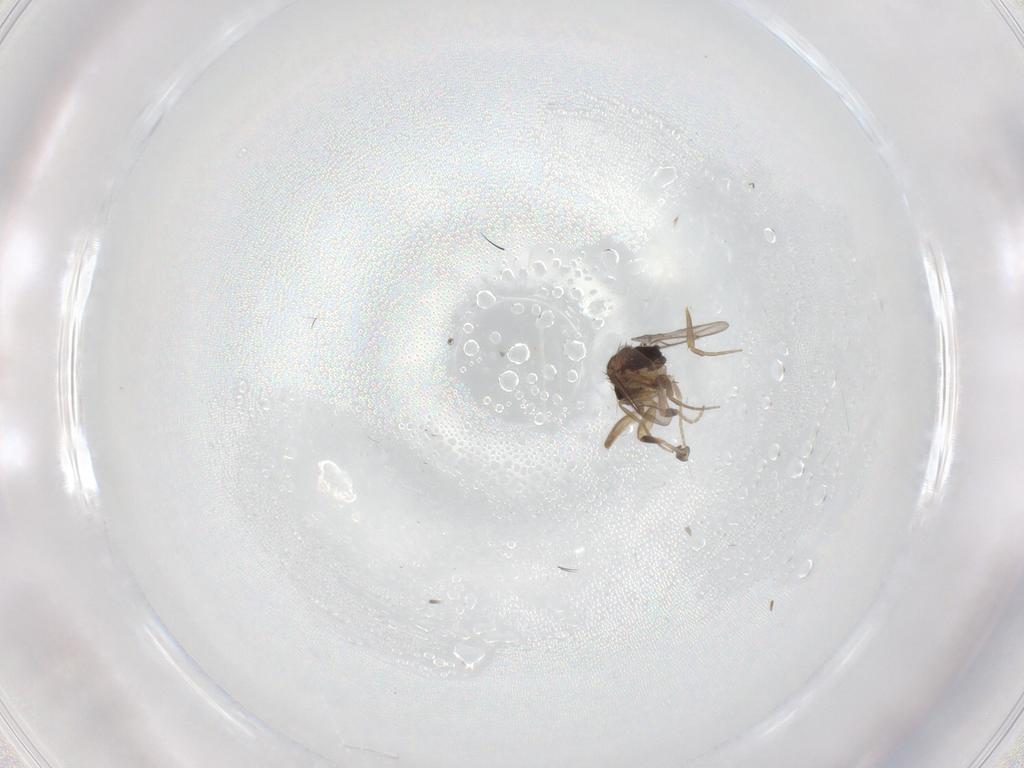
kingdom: Animalia
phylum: Arthropoda
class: Insecta
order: Diptera
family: Phoridae
